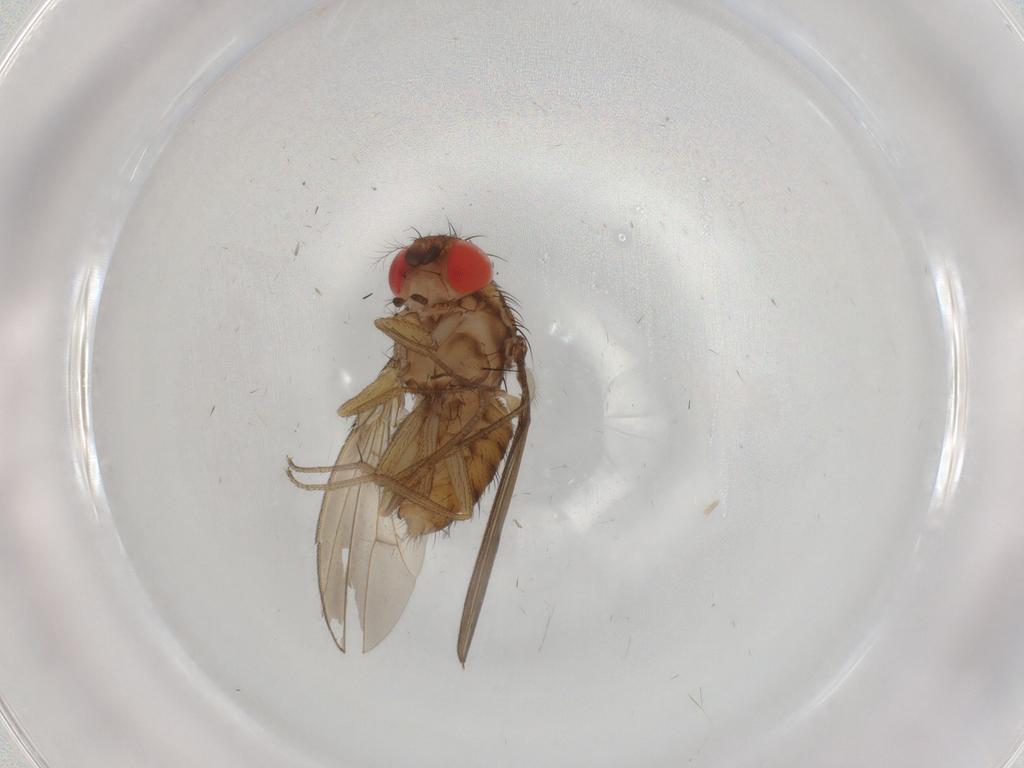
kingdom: Animalia
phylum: Arthropoda
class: Insecta
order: Diptera
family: Drosophilidae
